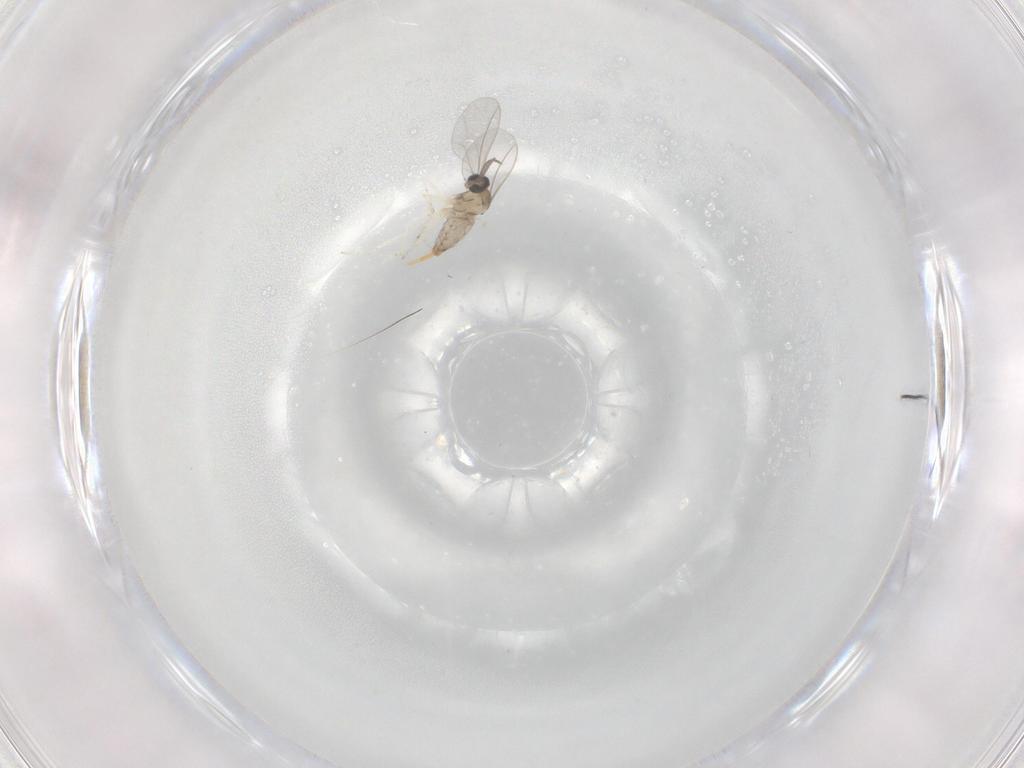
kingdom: Animalia
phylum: Arthropoda
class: Insecta
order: Diptera
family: Cecidomyiidae
